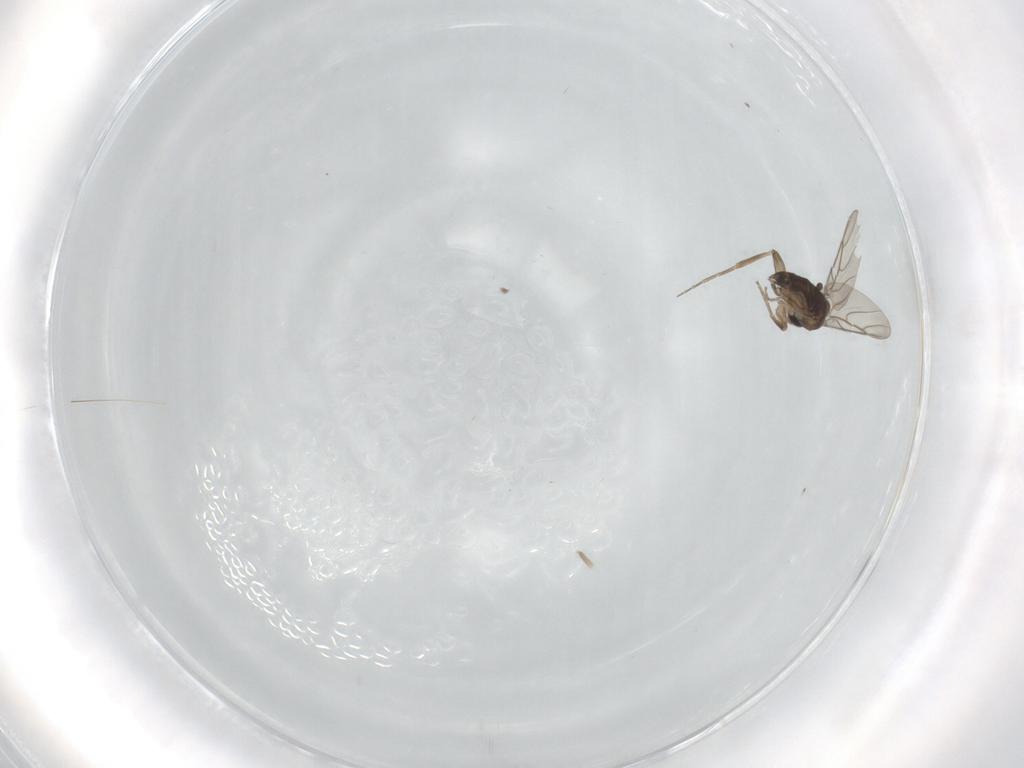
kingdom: Animalia
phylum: Arthropoda
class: Insecta
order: Diptera
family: Phoridae
